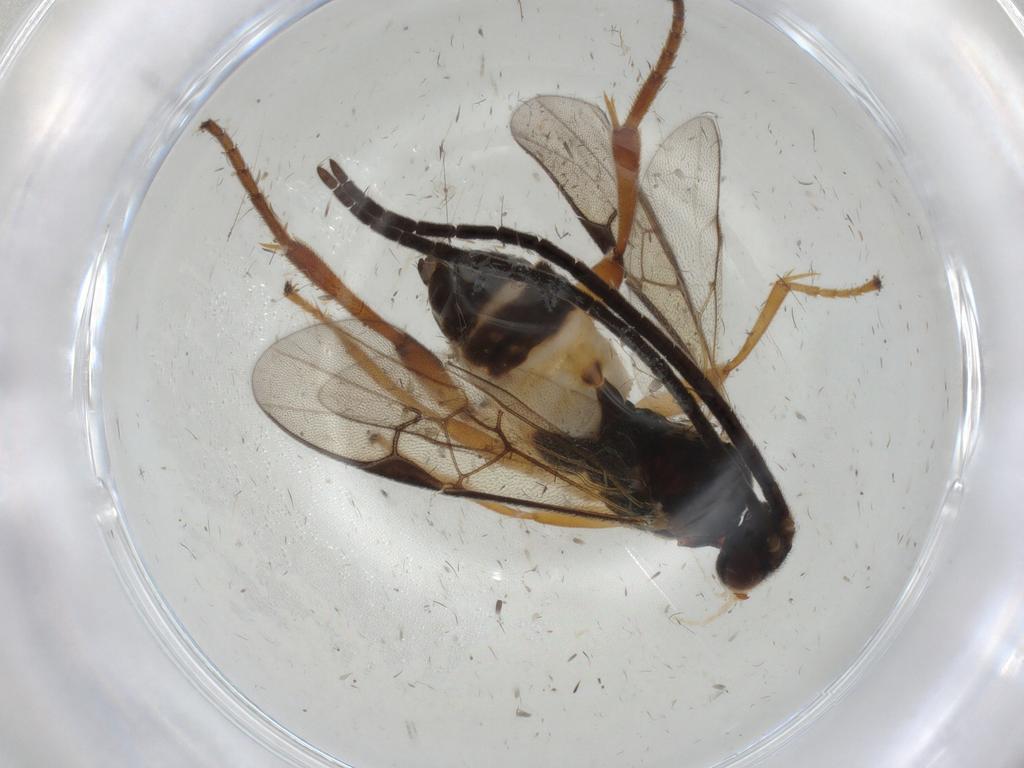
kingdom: Animalia
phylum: Arthropoda
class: Insecta
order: Hymenoptera
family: Braconidae
